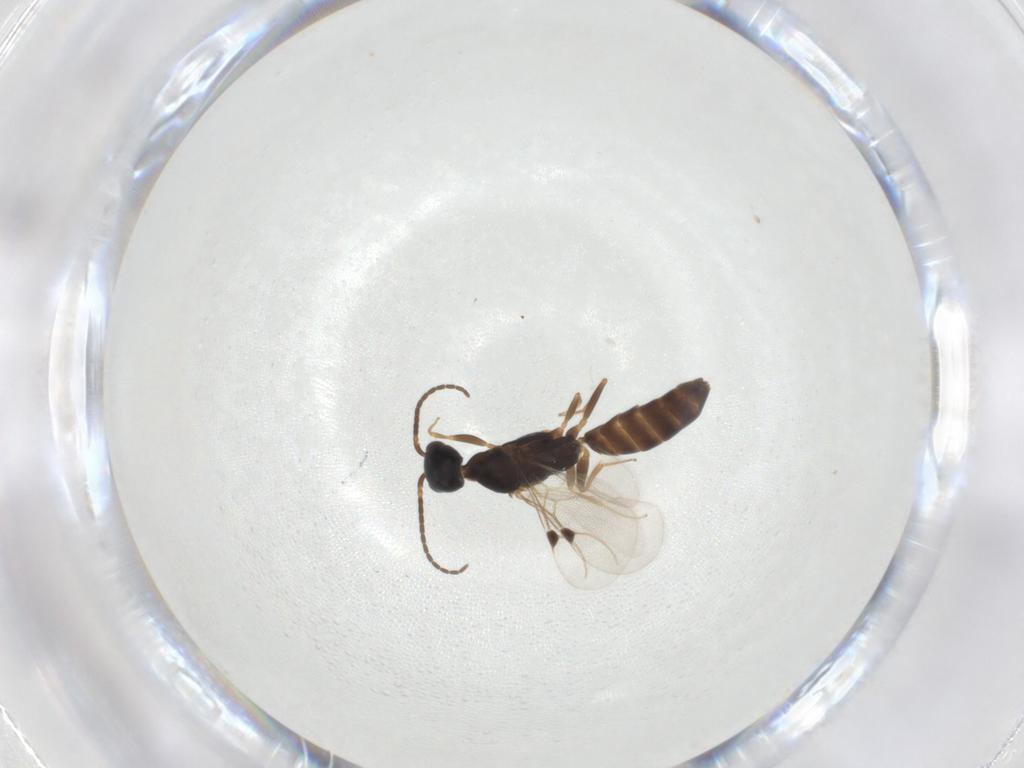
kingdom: Animalia
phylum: Arthropoda
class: Insecta
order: Hymenoptera
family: Bethylidae
